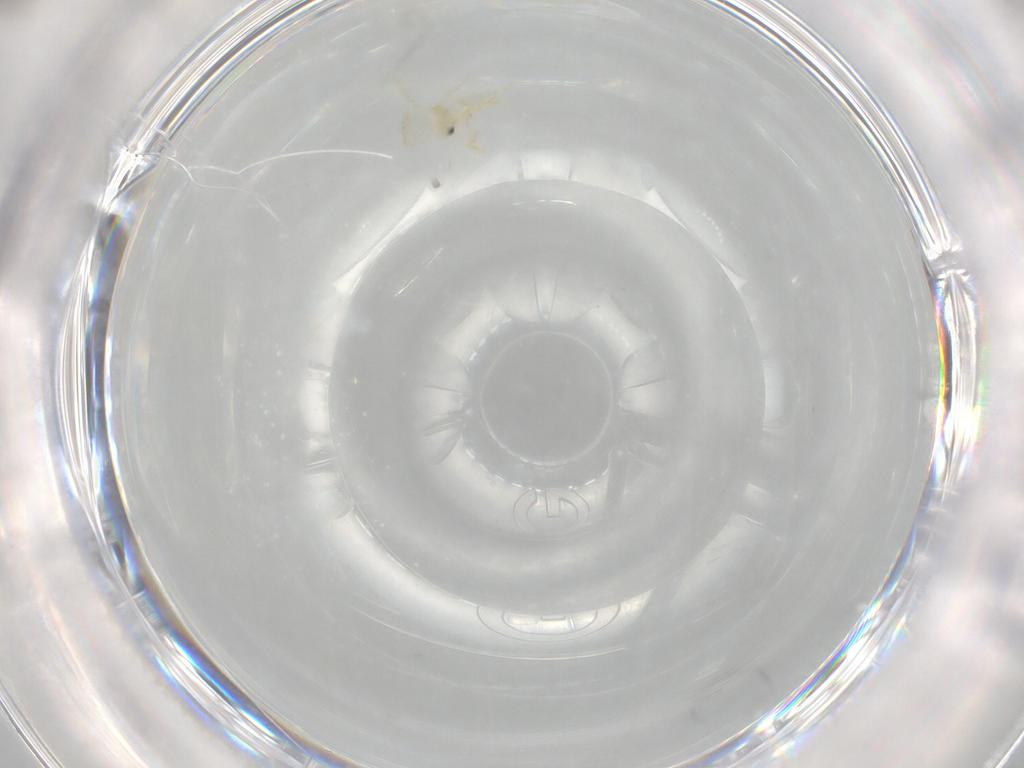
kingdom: Animalia
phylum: Arthropoda
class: Insecta
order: Hemiptera
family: Aleyrodidae
